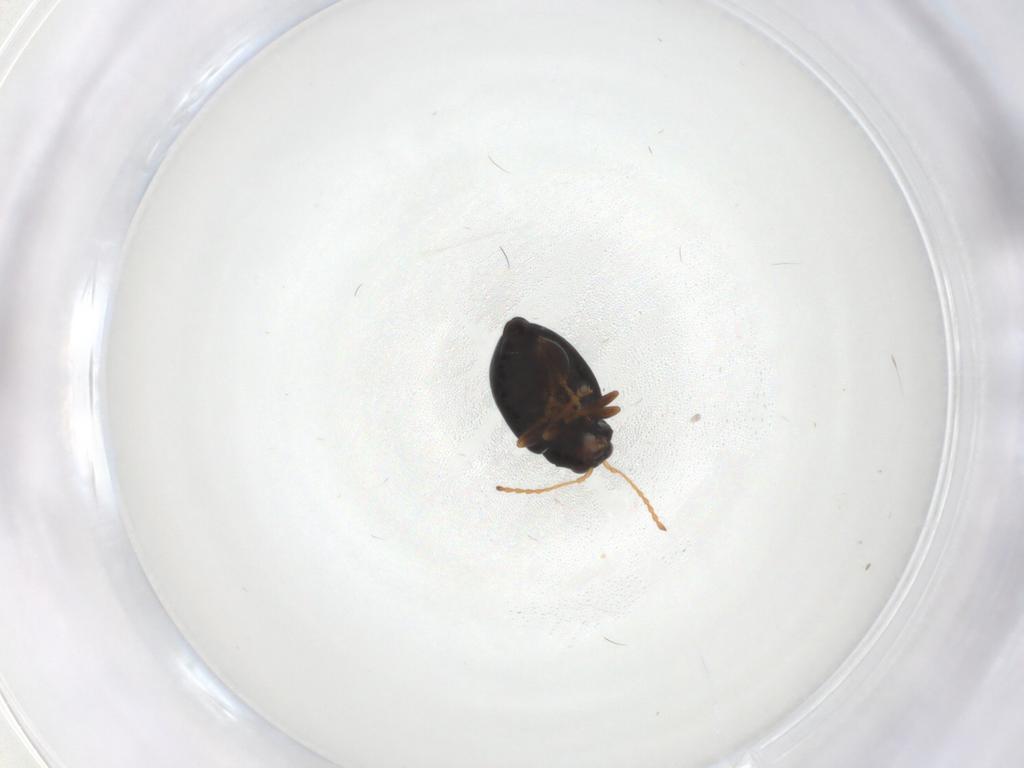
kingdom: Animalia
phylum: Arthropoda
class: Insecta
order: Coleoptera
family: Chrysomelidae
